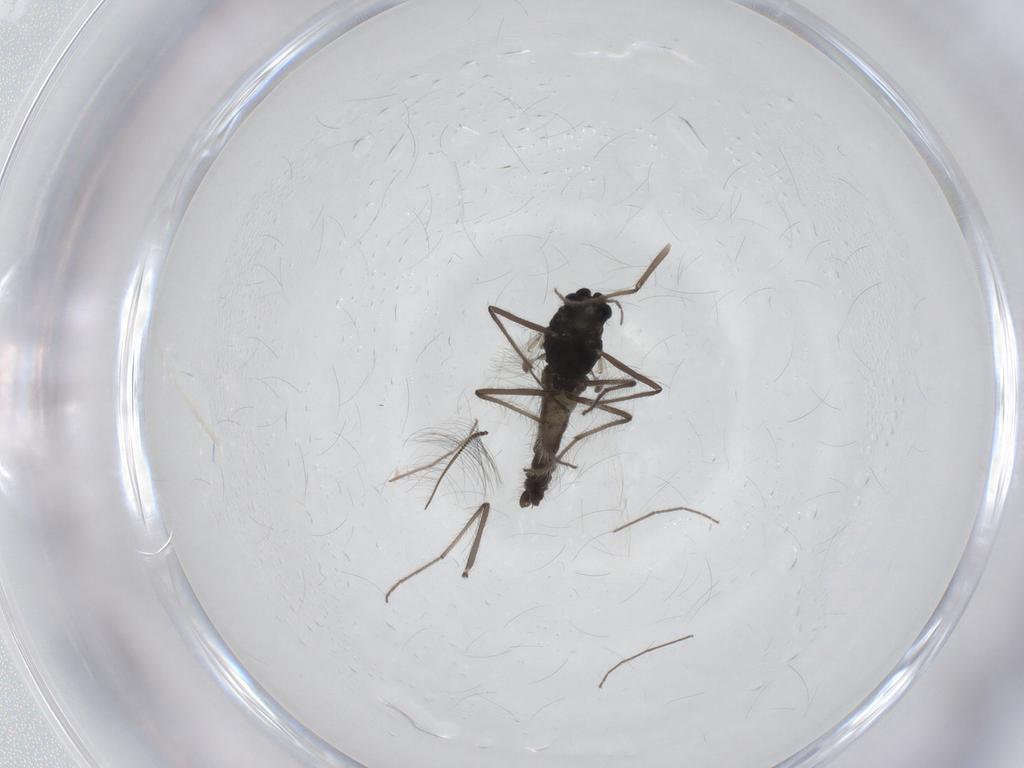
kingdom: Animalia
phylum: Arthropoda
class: Insecta
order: Diptera
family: Chironomidae
